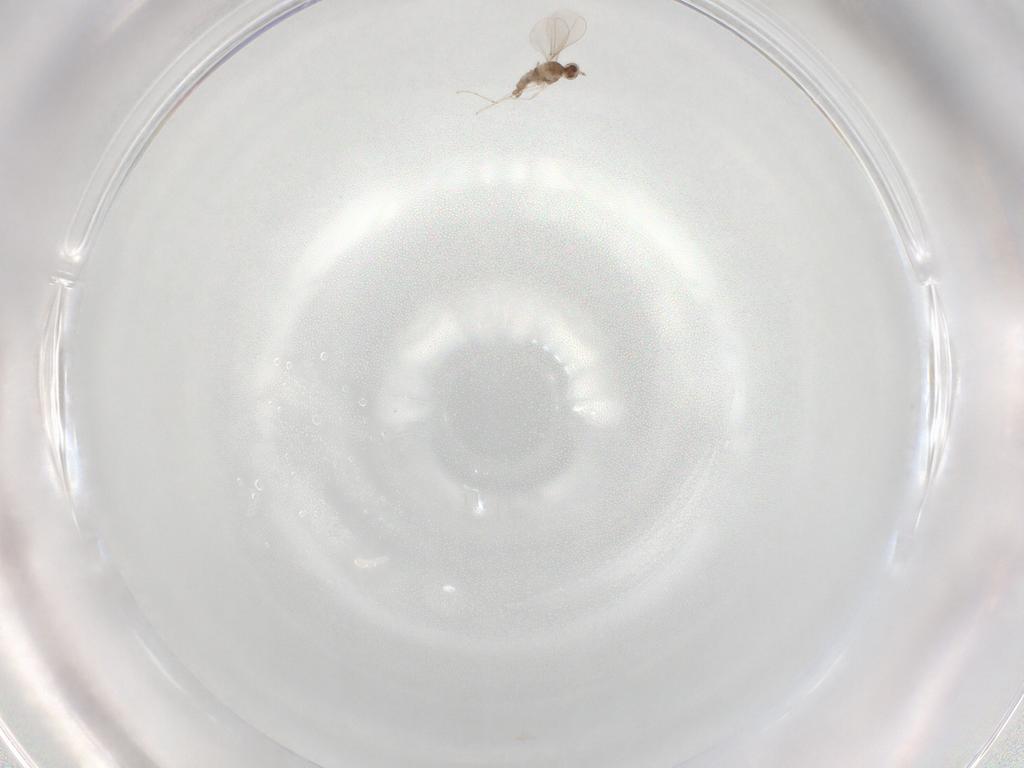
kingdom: Animalia
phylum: Arthropoda
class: Insecta
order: Diptera
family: Cecidomyiidae
